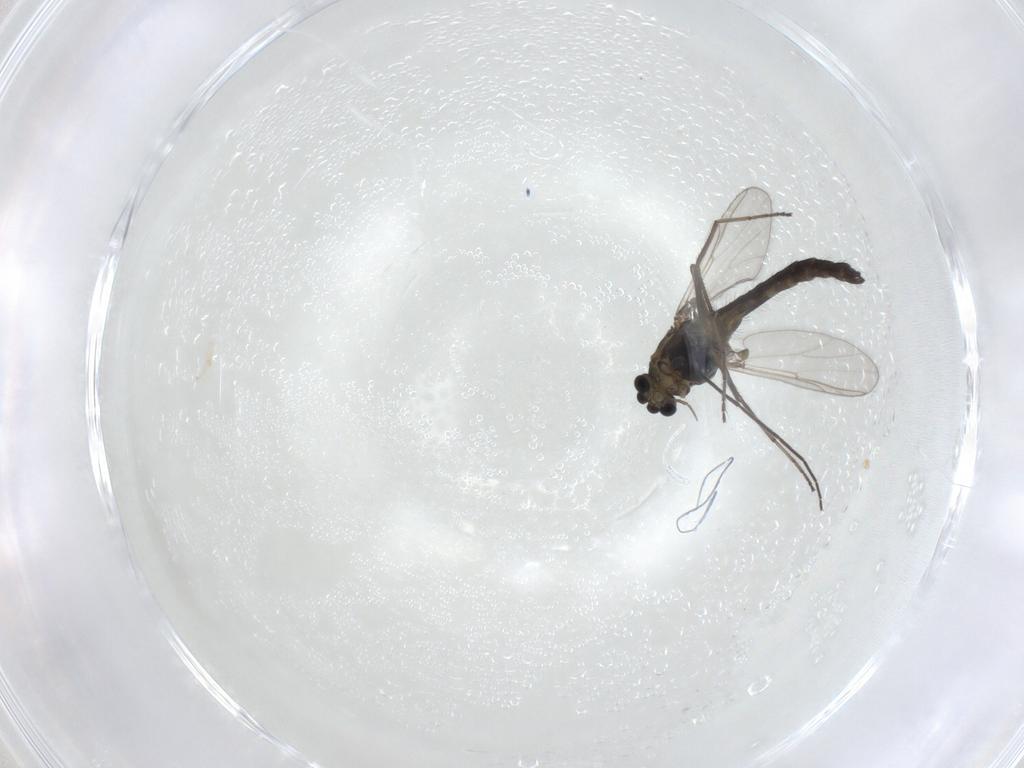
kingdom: Animalia
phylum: Arthropoda
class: Insecta
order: Diptera
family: Chironomidae
